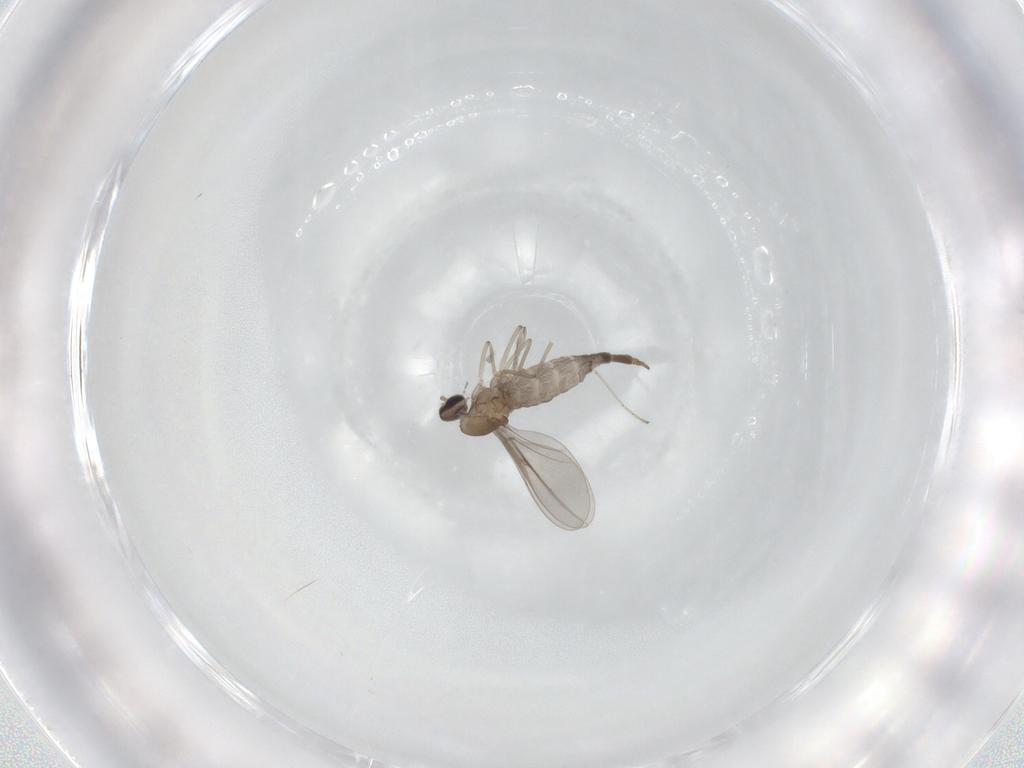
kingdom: Animalia
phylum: Arthropoda
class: Insecta
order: Diptera
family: Cecidomyiidae
